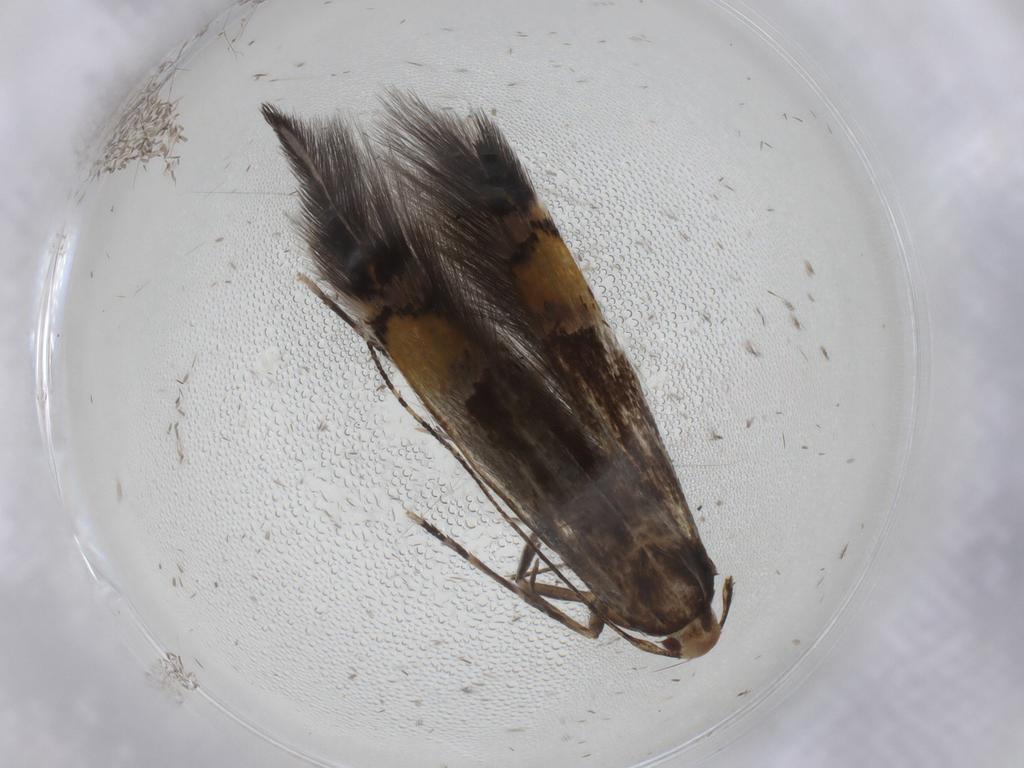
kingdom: Animalia
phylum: Arthropoda
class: Insecta
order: Lepidoptera
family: Cosmopterigidae
